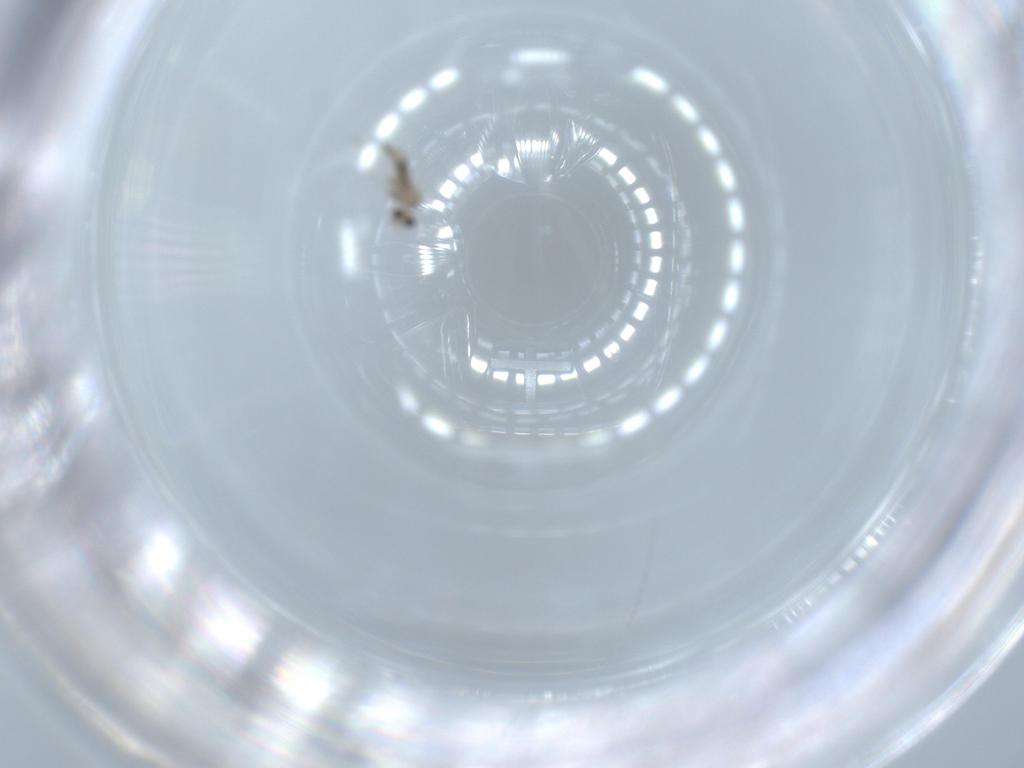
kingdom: Animalia
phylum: Arthropoda
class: Insecta
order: Diptera
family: Cecidomyiidae
